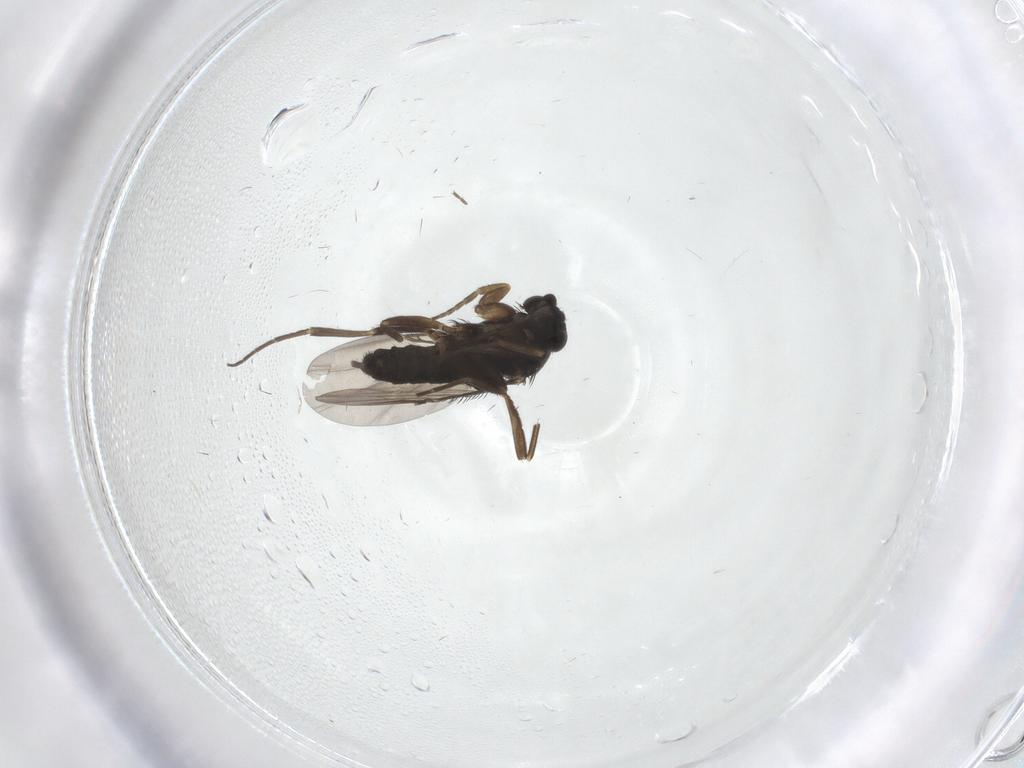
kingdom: Animalia
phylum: Arthropoda
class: Insecta
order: Diptera
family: Phoridae
